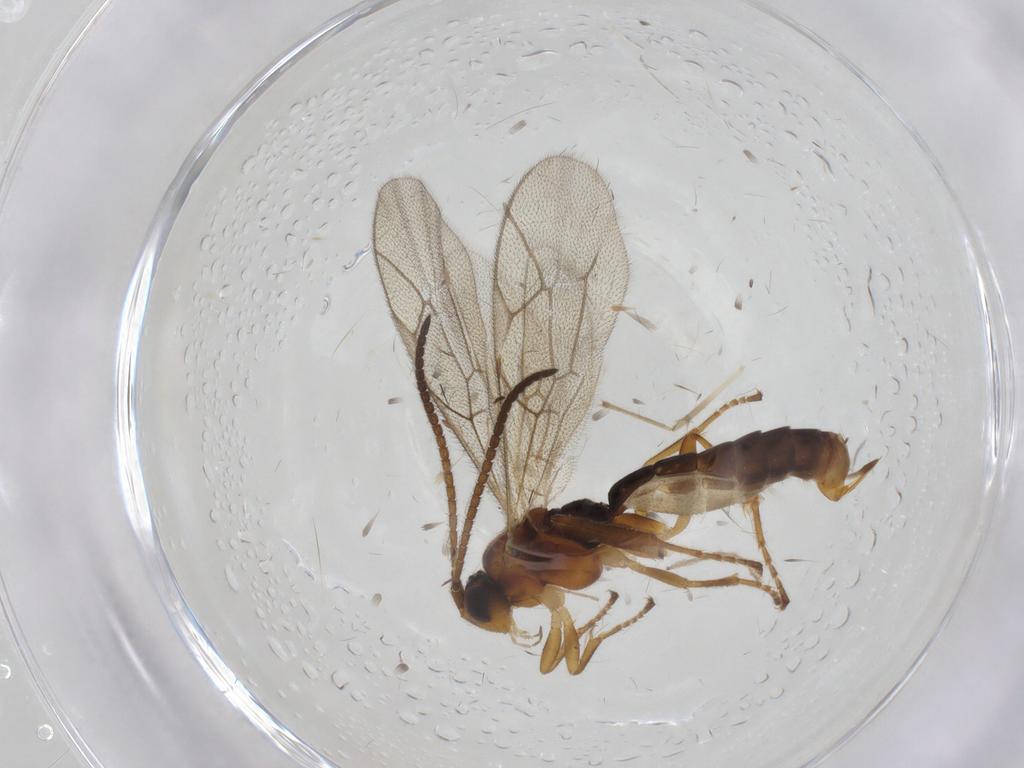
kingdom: Animalia
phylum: Arthropoda
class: Insecta
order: Hymenoptera
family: Ichneumonidae
